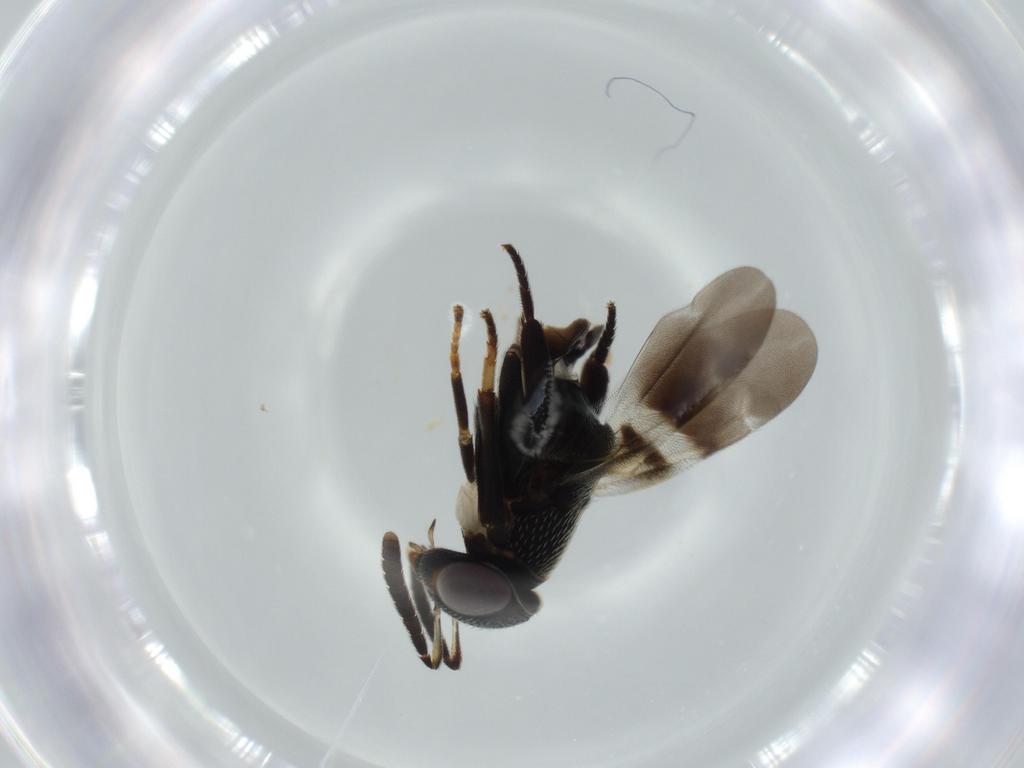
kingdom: Animalia
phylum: Arthropoda
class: Insecta
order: Hymenoptera
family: Encyrtidae
